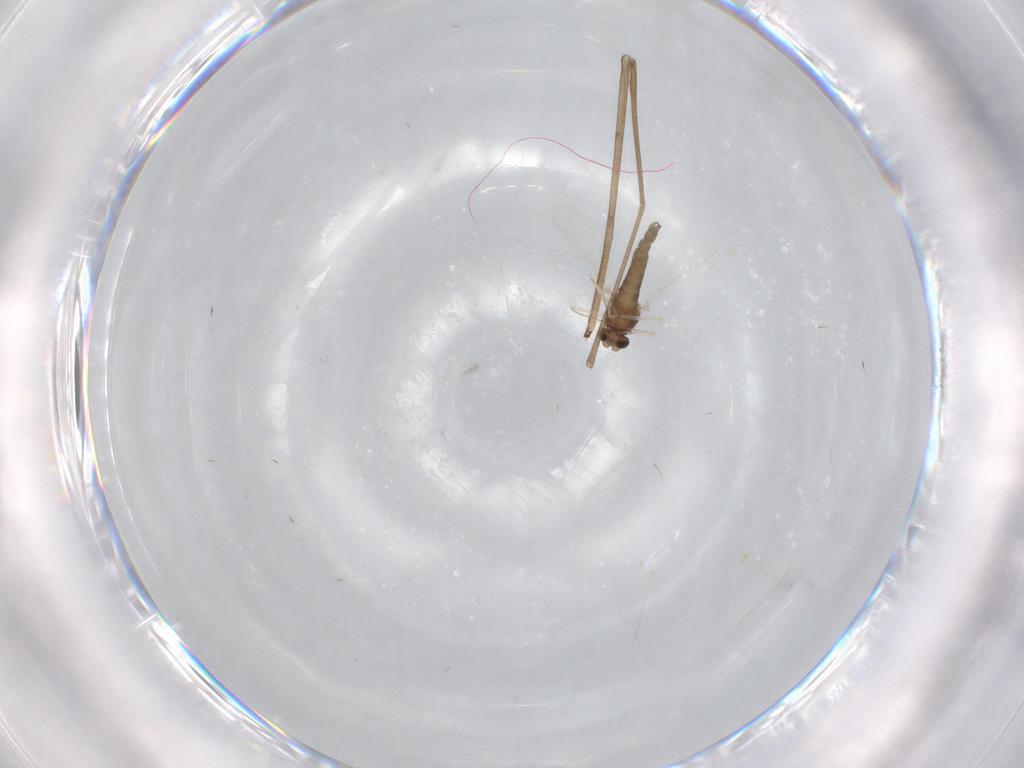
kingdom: Animalia
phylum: Arthropoda
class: Insecta
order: Diptera
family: Chironomidae
